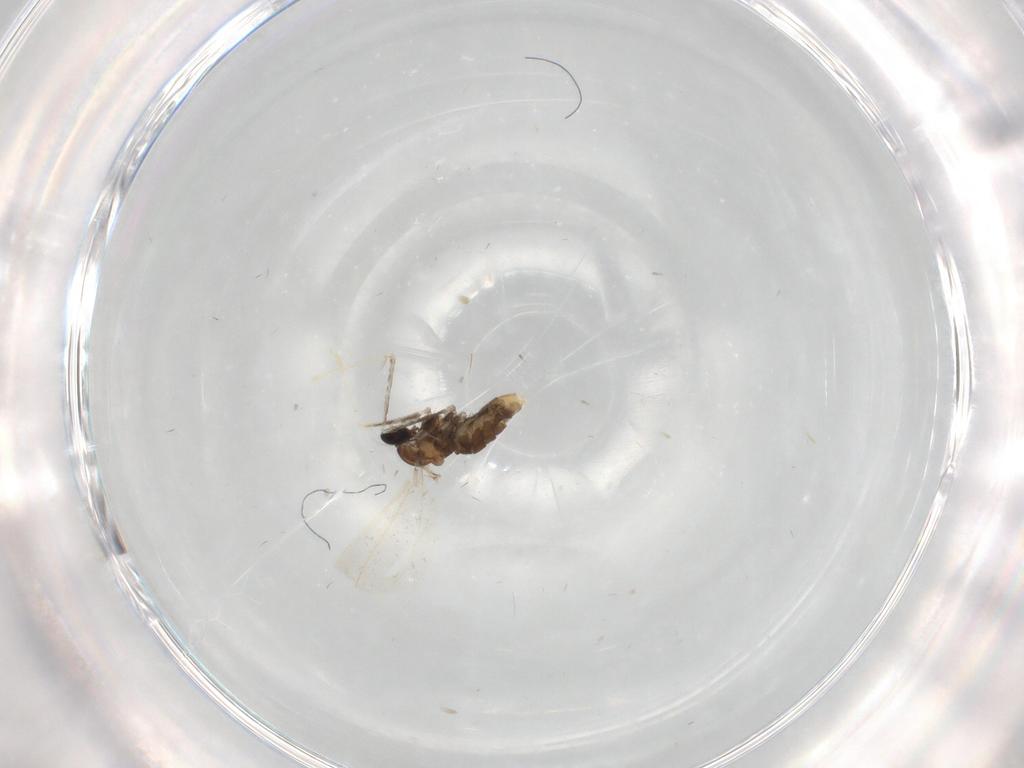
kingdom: Animalia
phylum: Arthropoda
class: Insecta
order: Diptera
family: Cecidomyiidae
